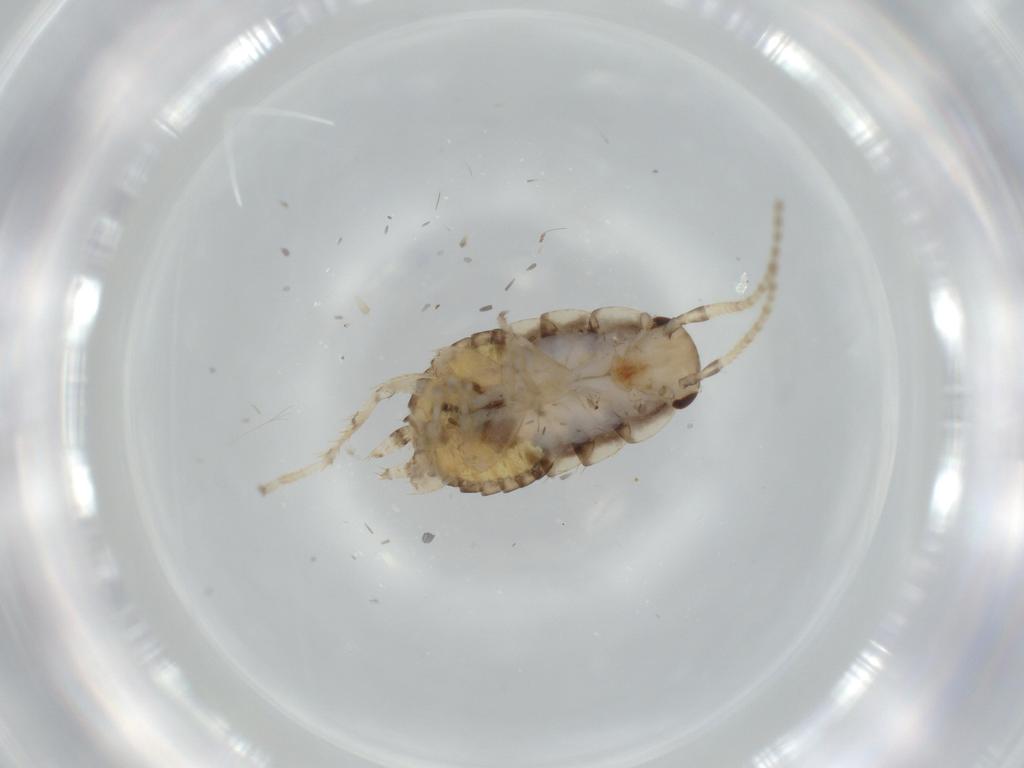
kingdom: Animalia
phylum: Arthropoda
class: Insecta
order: Blattodea
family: Ectobiidae
